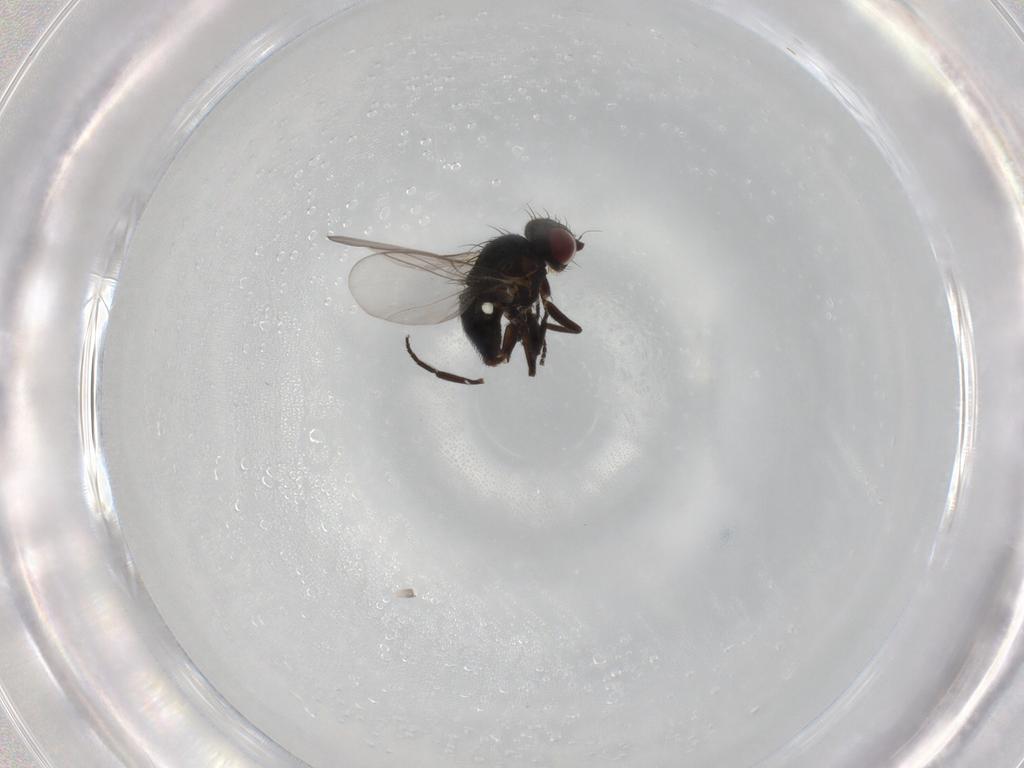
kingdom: Animalia
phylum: Arthropoda
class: Insecta
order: Diptera
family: Agromyzidae
